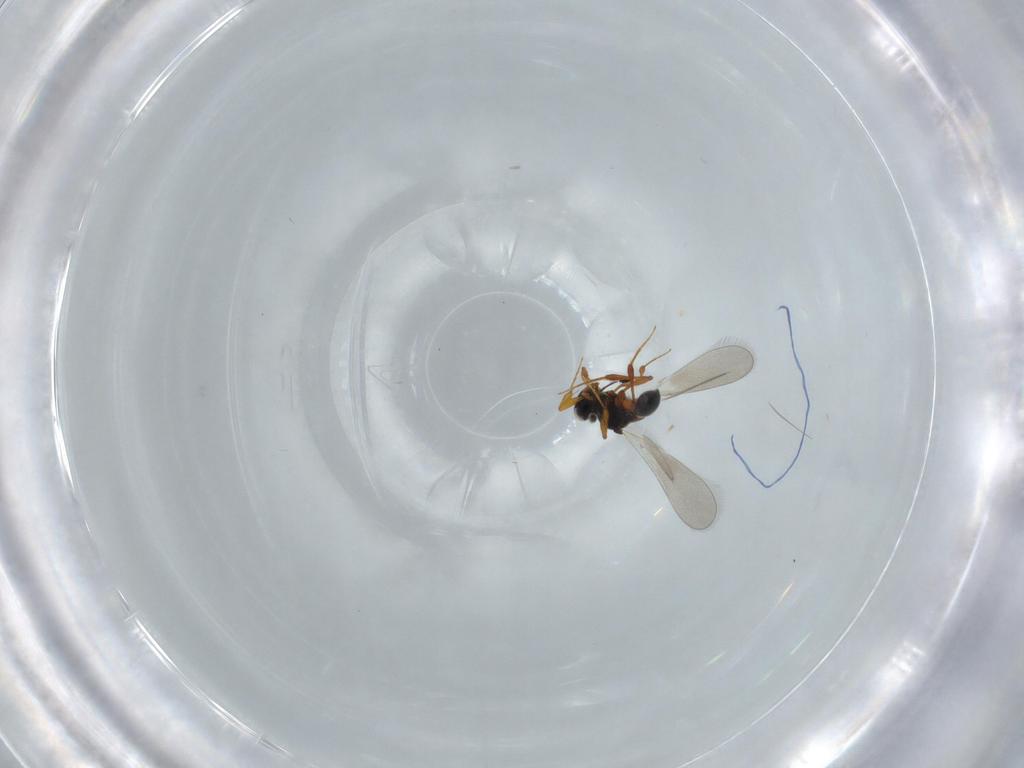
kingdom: Animalia
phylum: Arthropoda
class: Insecta
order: Hymenoptera
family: Platygastridae
